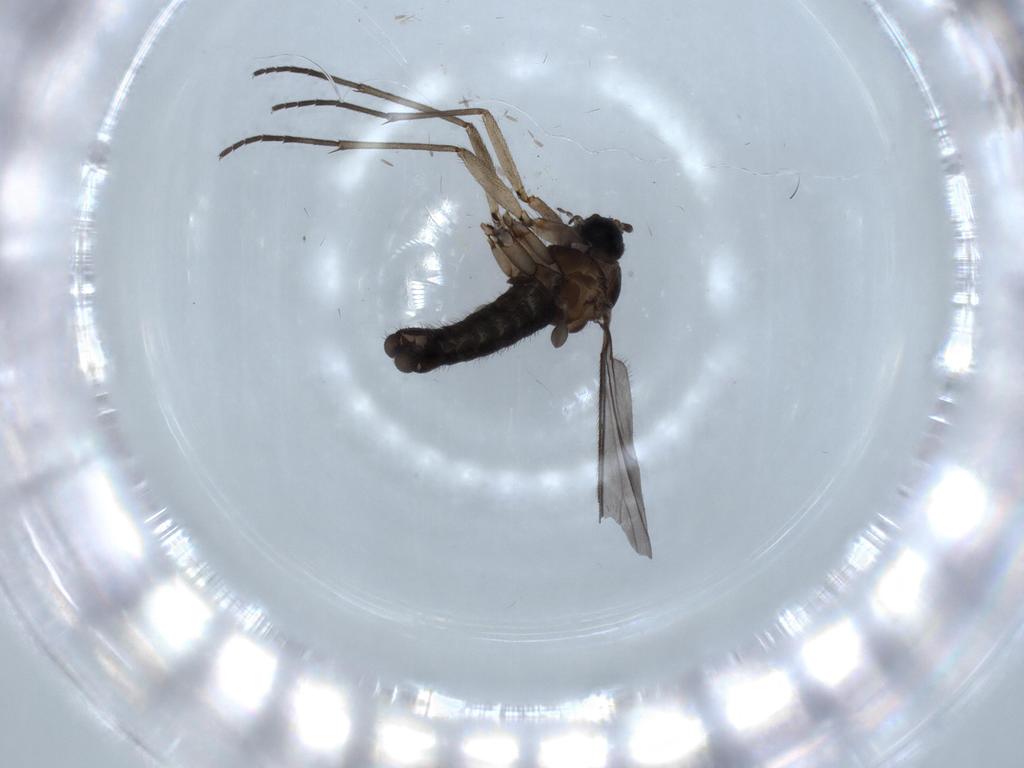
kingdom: Animalia
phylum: Arthropoda
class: Insecta
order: Diptera
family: Sciaridae
